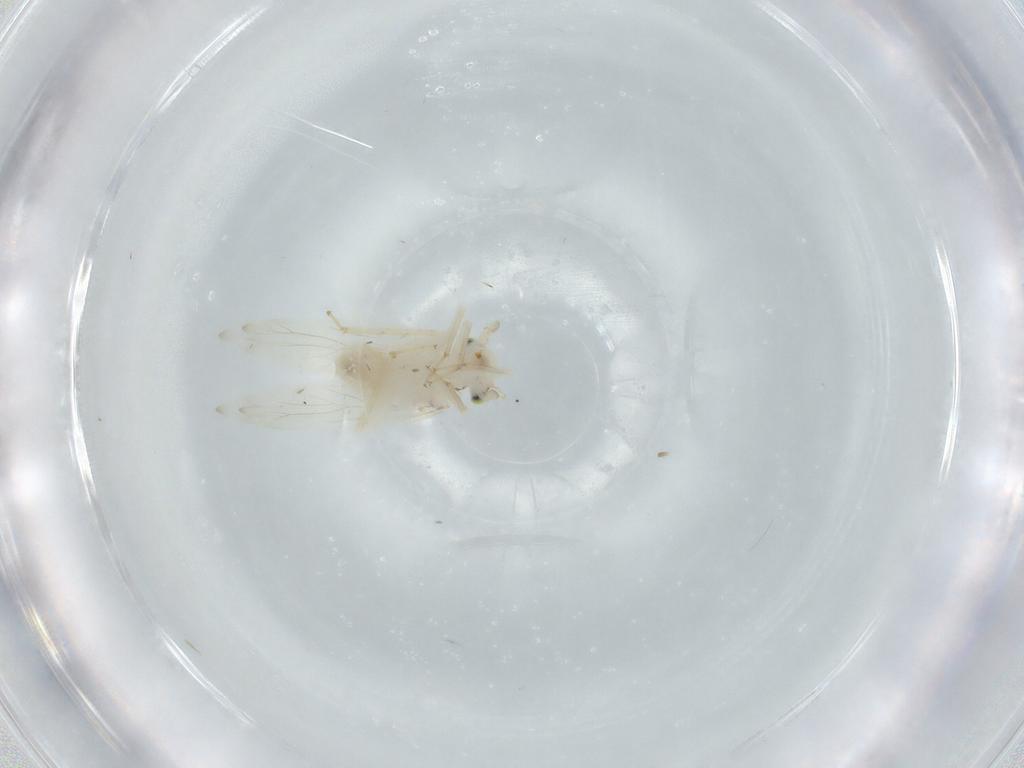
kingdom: Animalia
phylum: Arthropoda
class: Insecta
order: Psocodea
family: Lepidopsocidae
